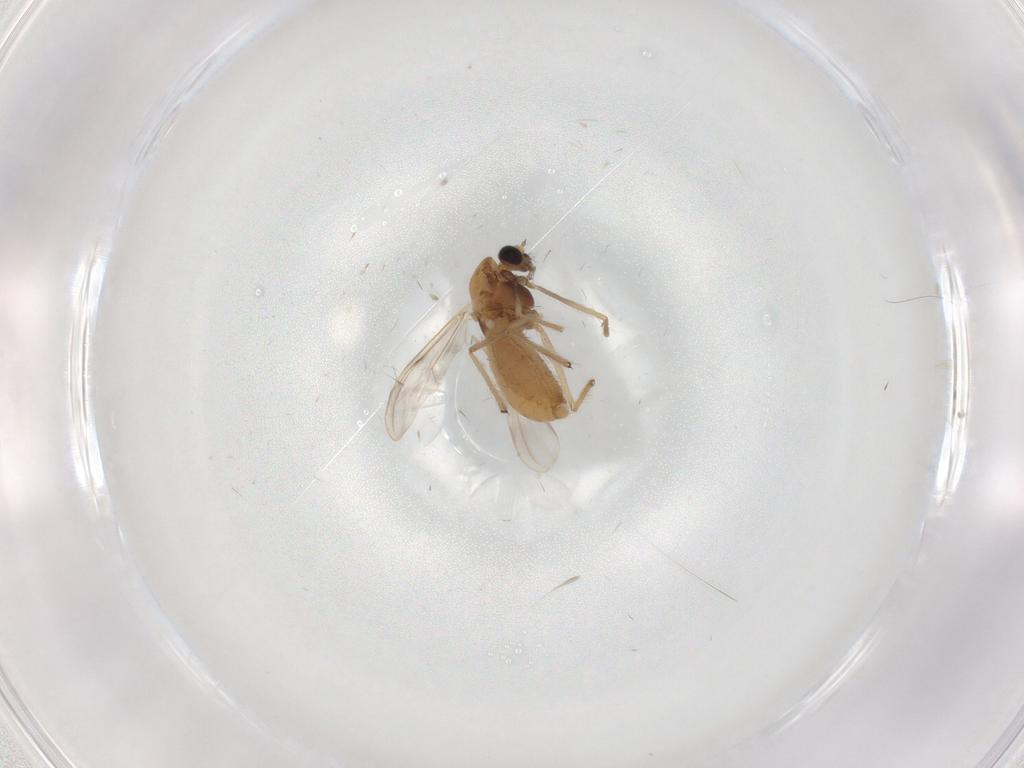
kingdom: Animalia
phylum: Arthropoda
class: Insecta
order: Diptera
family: Chironomidae
